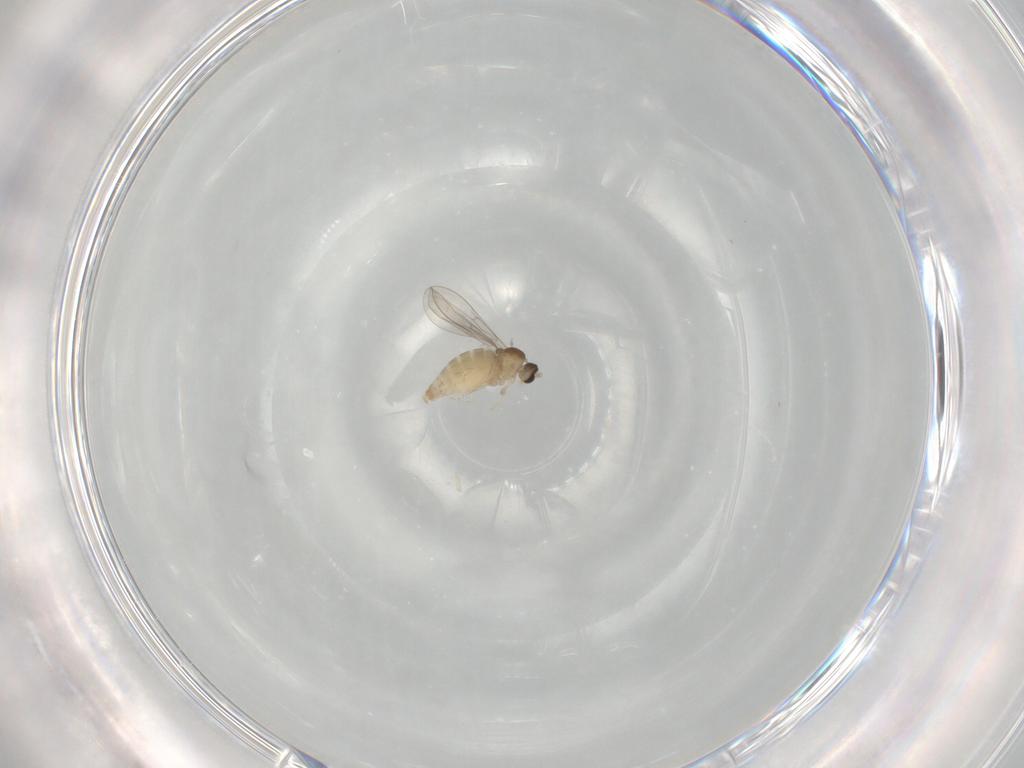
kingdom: Animalia
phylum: Arthropoda
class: Insecta
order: Diptera
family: Cecidomyiidae
